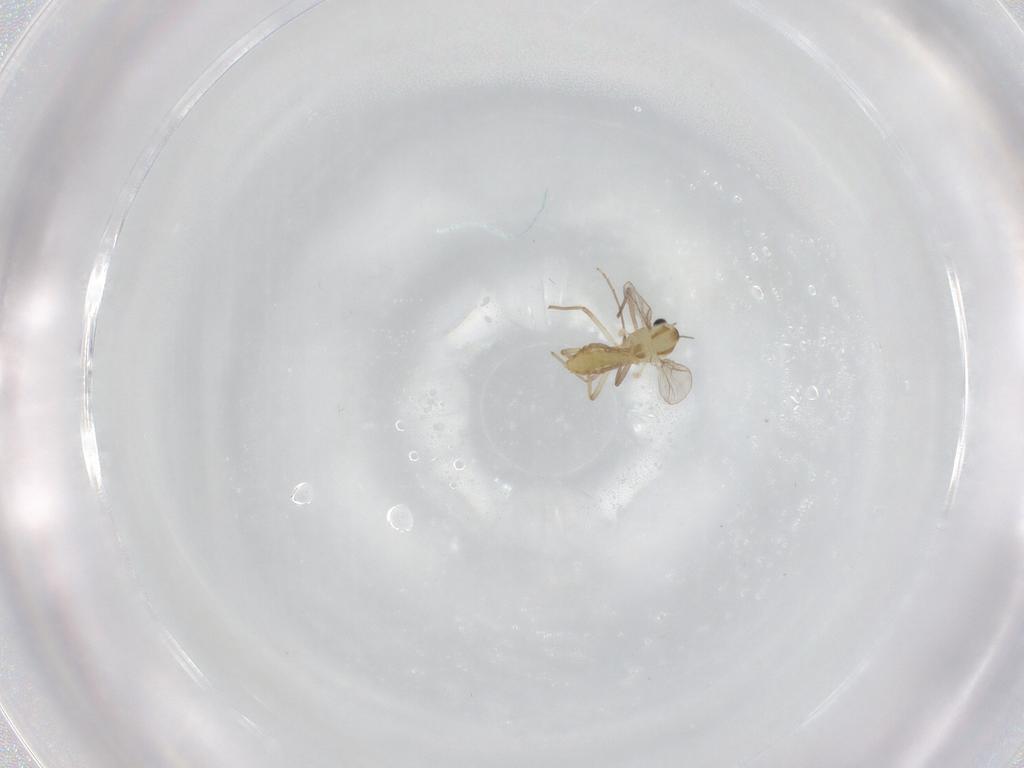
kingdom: Animalia
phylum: Arthropoda
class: Insecta
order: Diptera
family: Chironomidae
